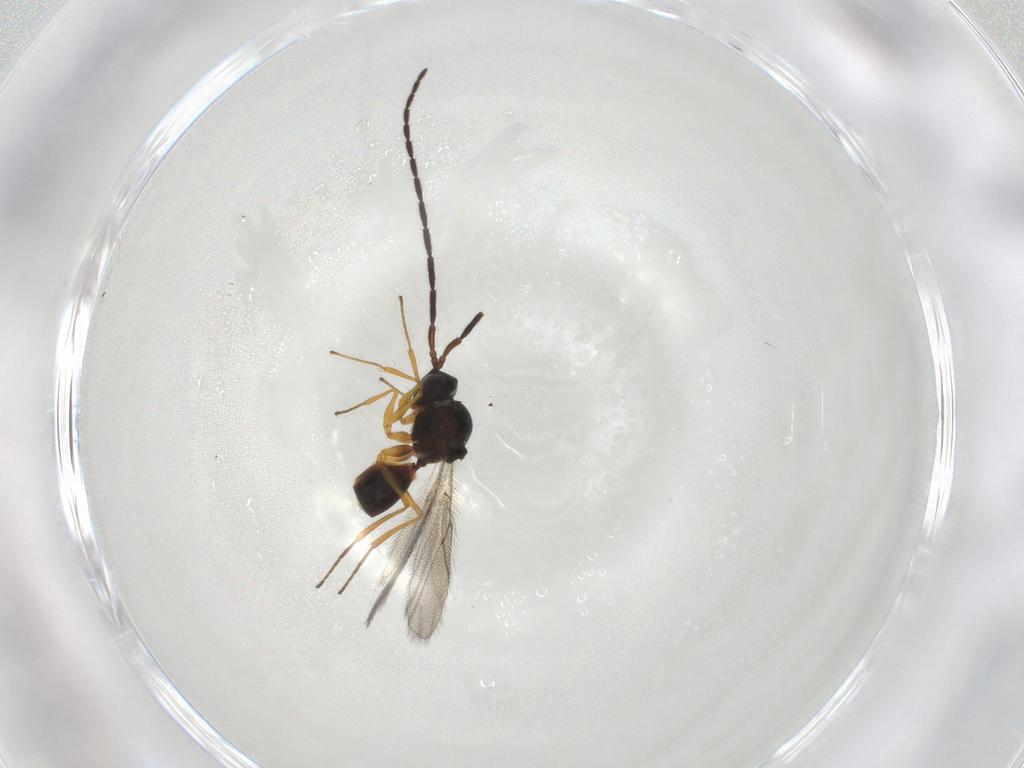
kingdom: Animalia
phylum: Arthropoda
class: Insecta
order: Hymenoptera
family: Figitidae
